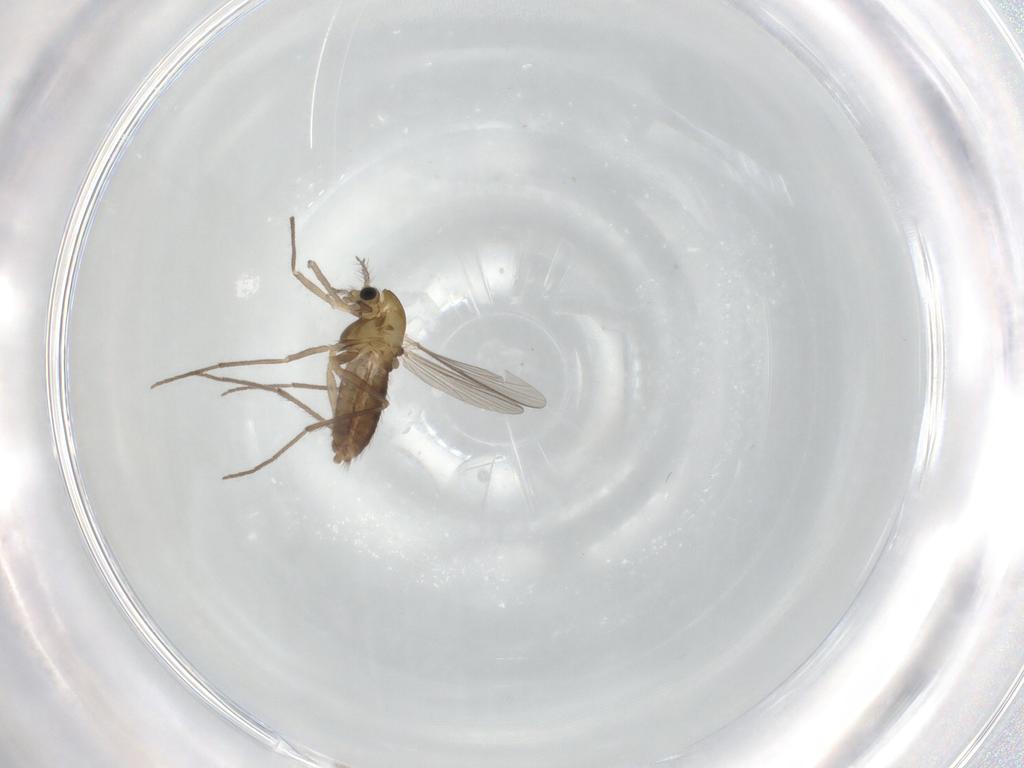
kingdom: Animalia
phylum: Arthropoda
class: Insecta
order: Diptera
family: Chironomidae
